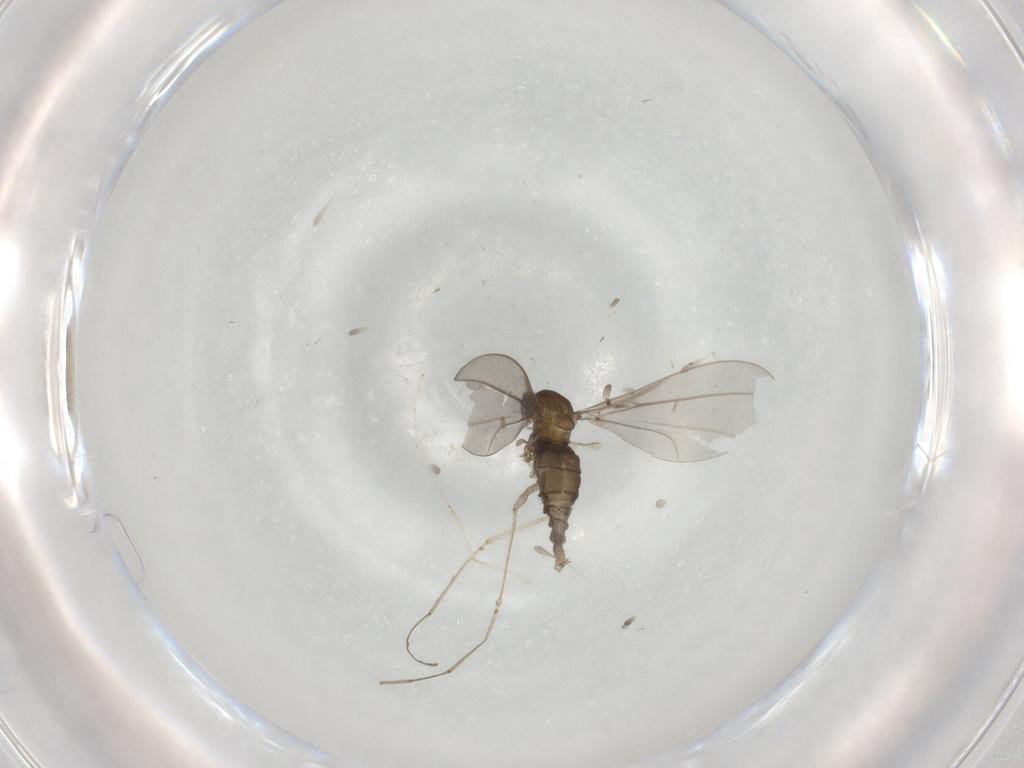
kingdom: Animalia
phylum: Arthropoda
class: Insecta
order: Diptera
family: Cecidomyiidae
